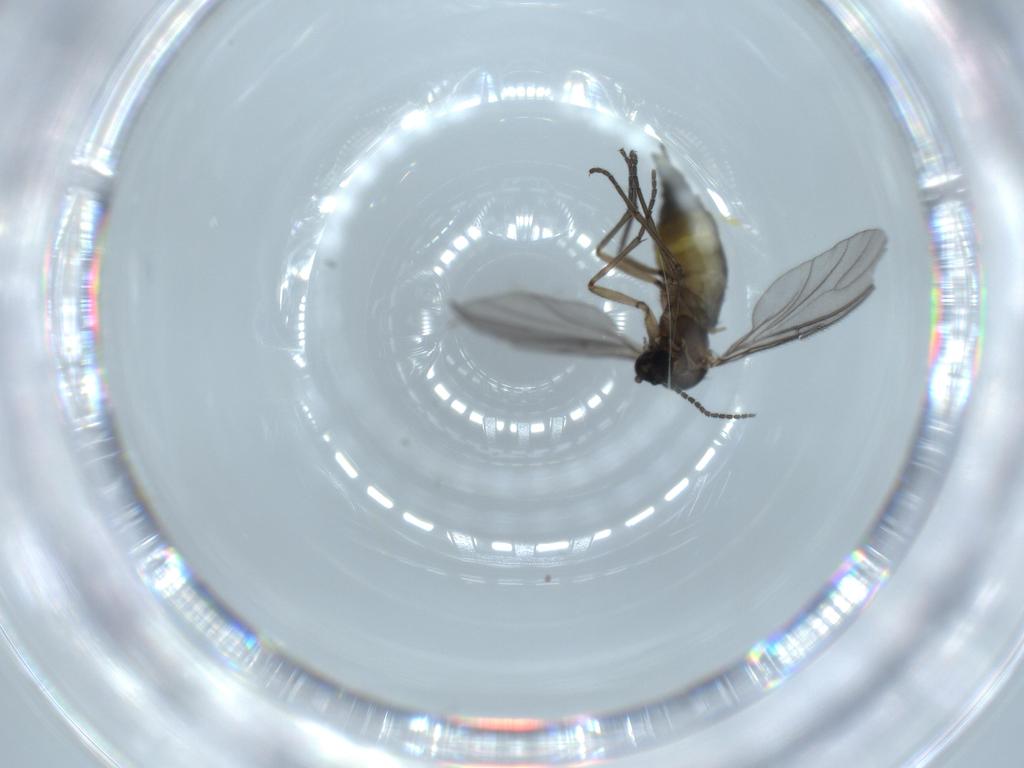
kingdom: Animalia
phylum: Arthropoda
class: Insecta
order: Diptera
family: Sciaridae
